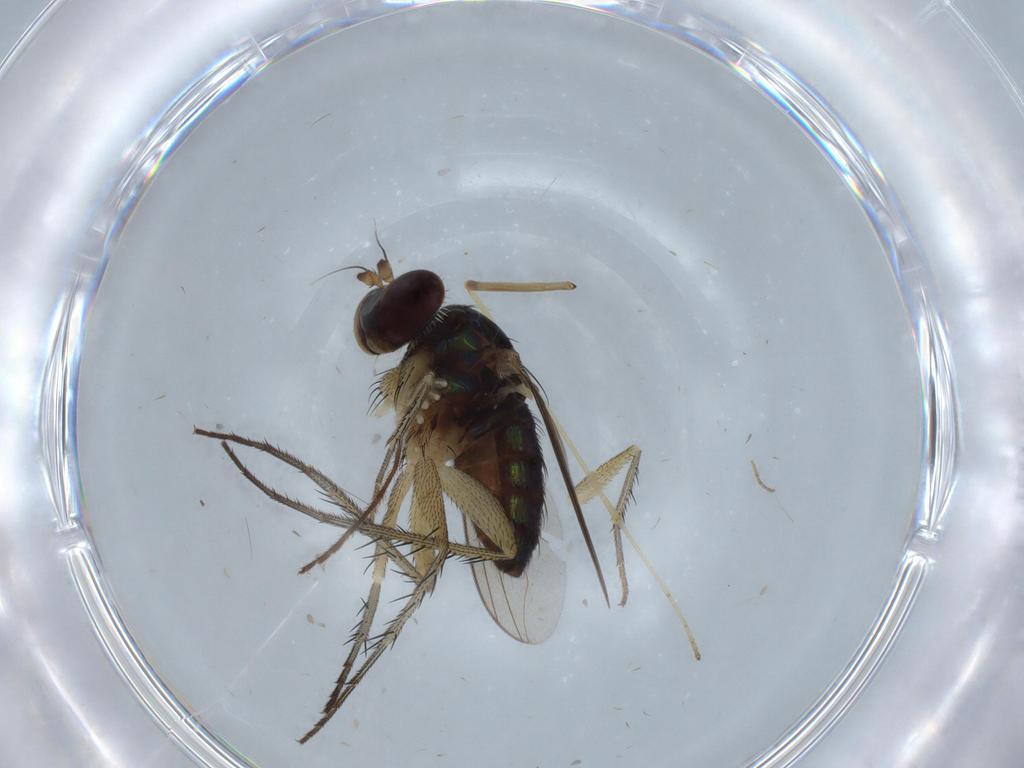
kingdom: Animalia
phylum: Arthropoda
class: Insecta
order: Diptera
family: Dolichopodidae
